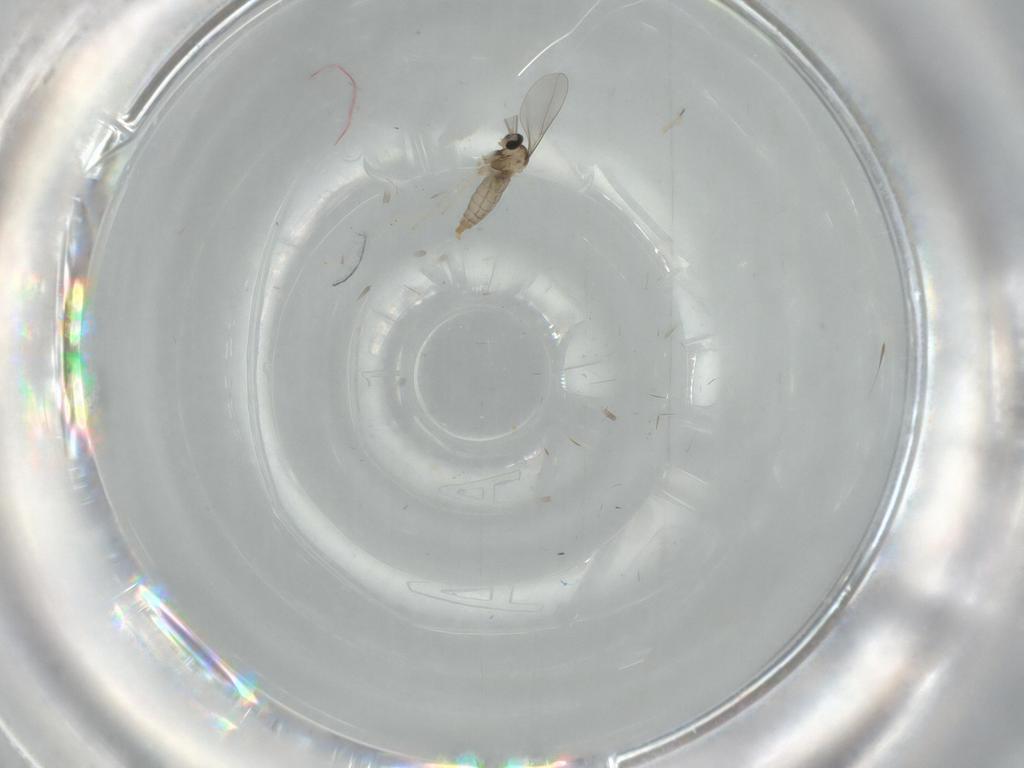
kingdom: Animalia
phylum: Arthropoda
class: Insecta
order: Diptera
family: Cecidomyiidae
